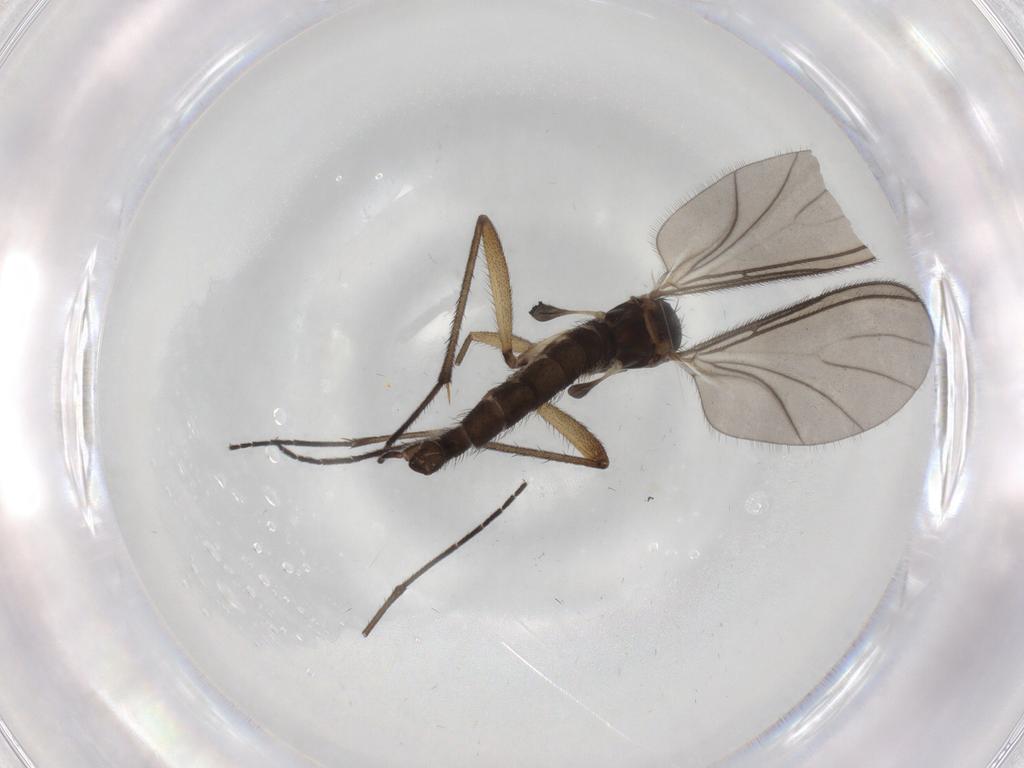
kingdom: Animalia
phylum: Arthropoda
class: Insecta
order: Diptera
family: Sciaridae
